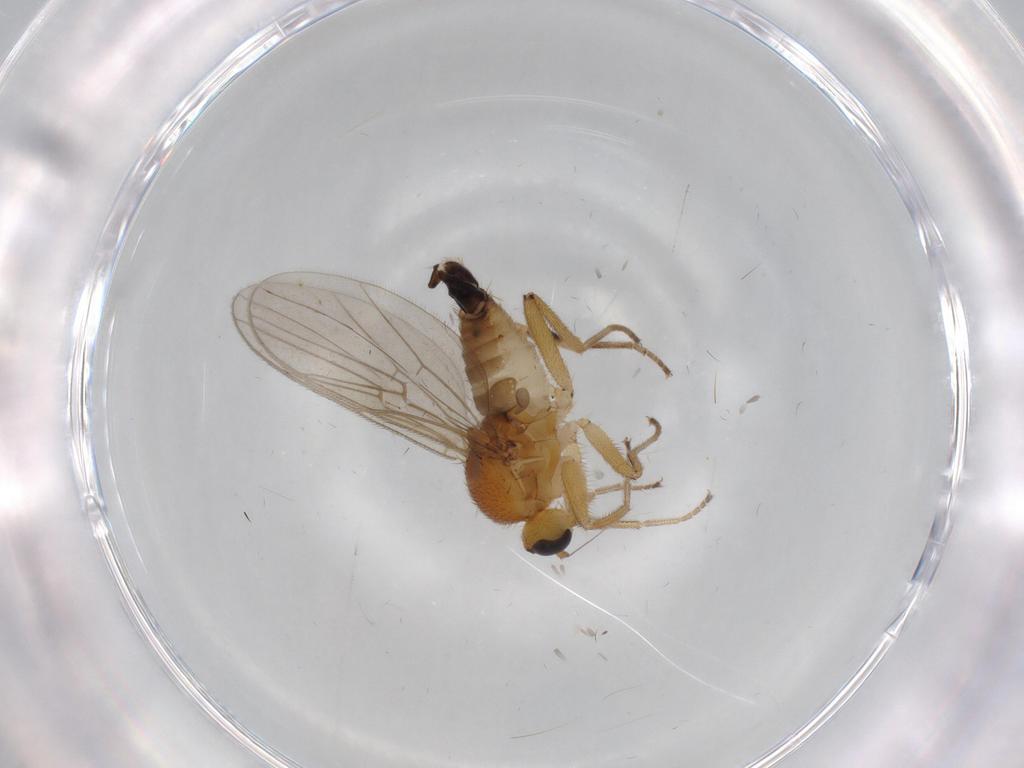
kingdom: Animalia
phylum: Arthropoda
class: Insecta
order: Diptera
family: Hybotidae
